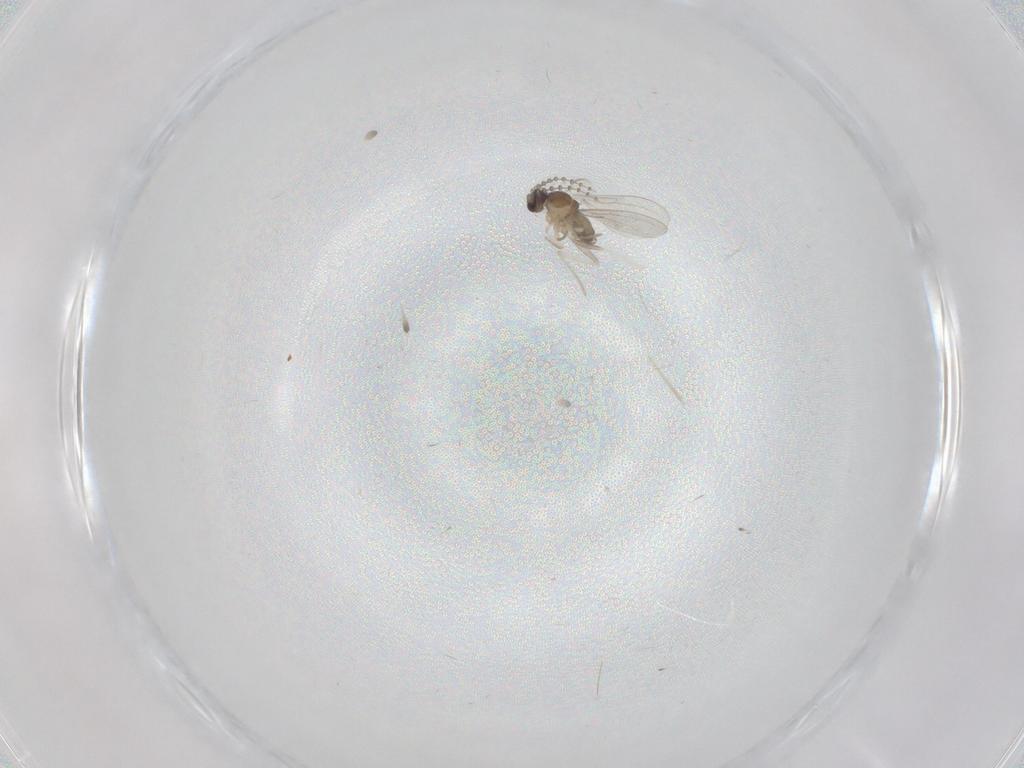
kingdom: Animalia
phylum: Arthropoda
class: Insecta
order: Diptera
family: Cecidomyiidae
